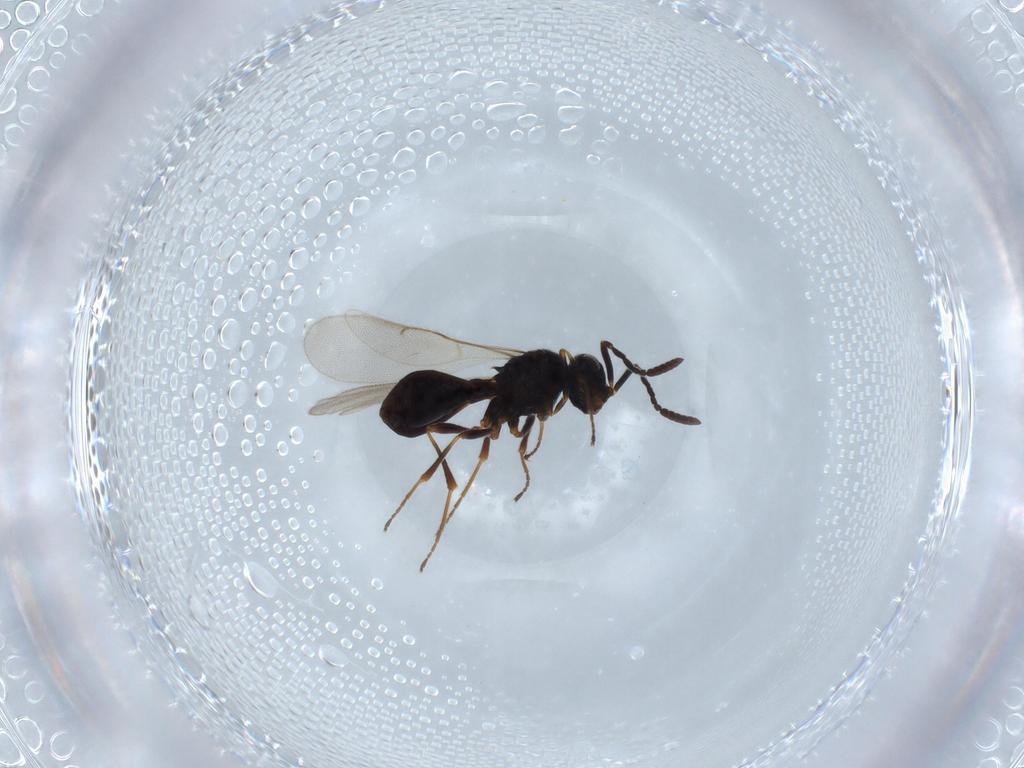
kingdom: Animalia
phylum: Arthropoda
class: Insecta
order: Hymenoptera
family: Scelionidae
